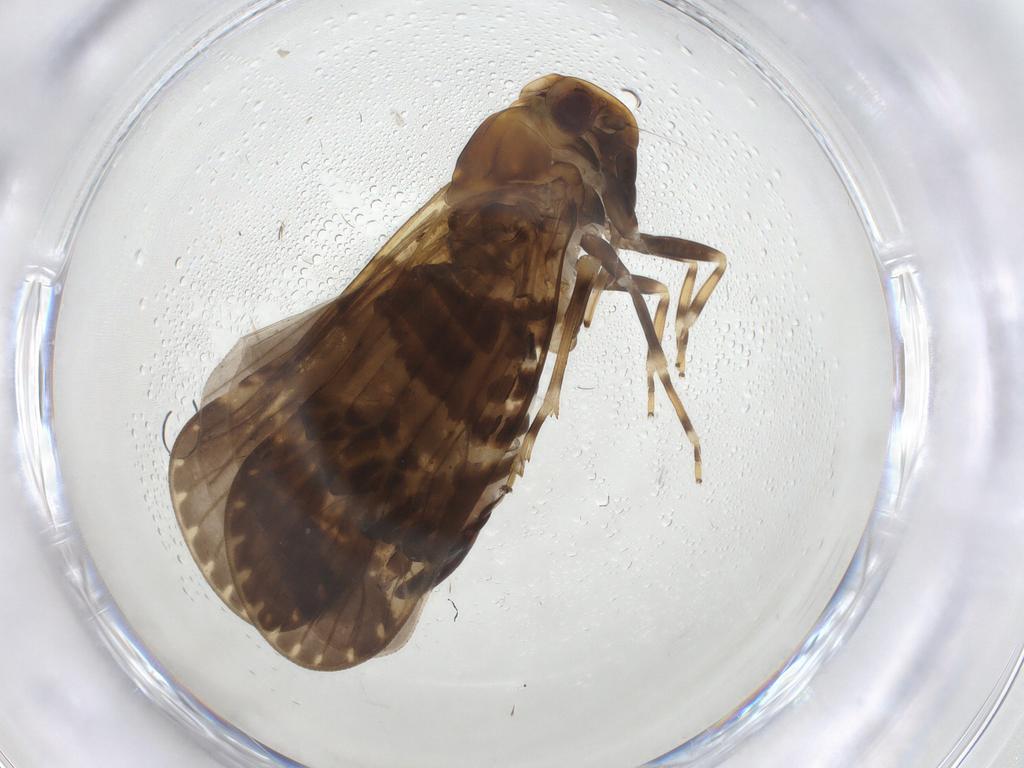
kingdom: Animalia
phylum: Arthropoda
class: Insecta
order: Hemiptera
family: Cixiidae
